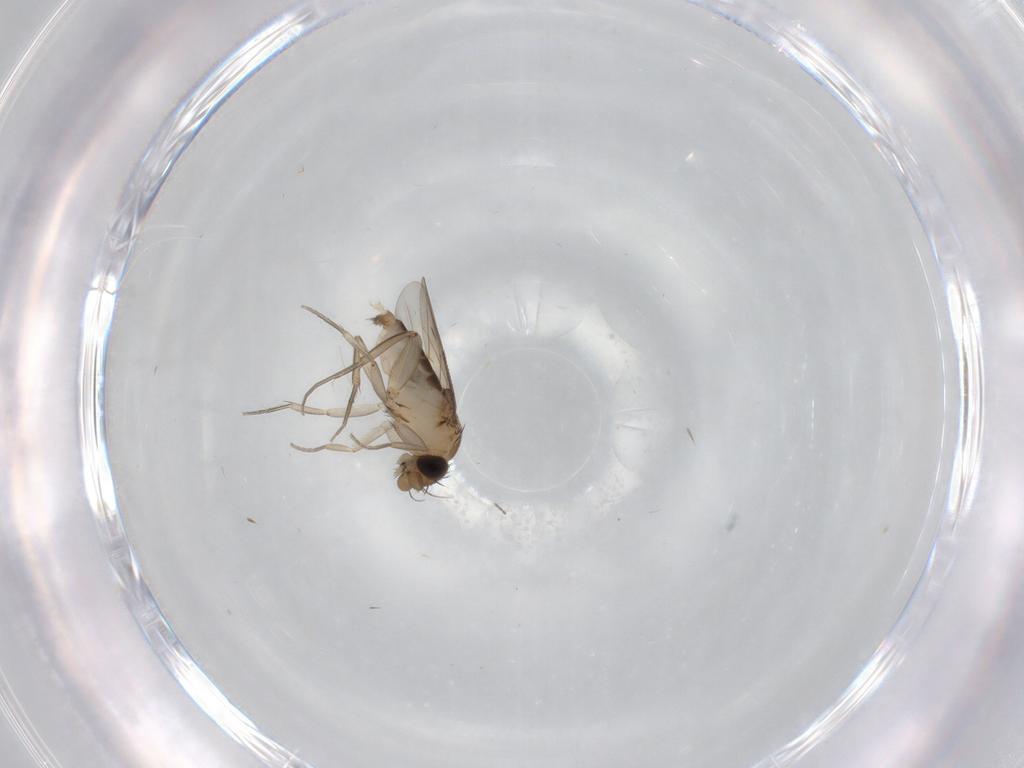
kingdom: Animalia
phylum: Arthropoda
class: Insecta
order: Diptera
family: Phoridae
